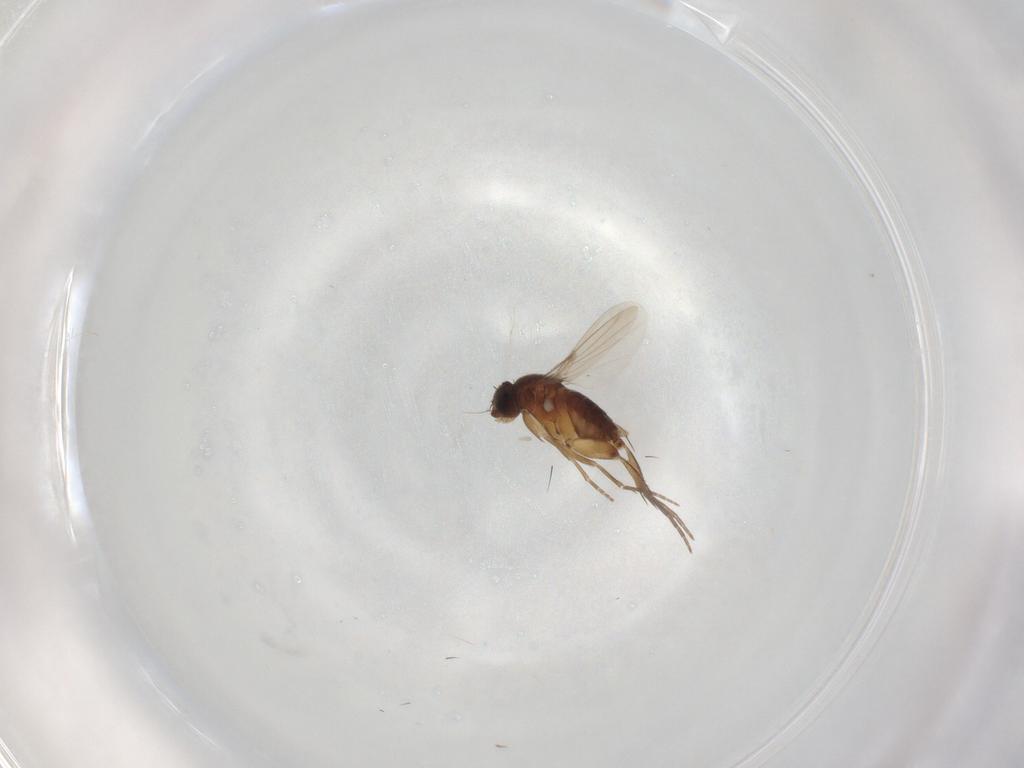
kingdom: Animalia
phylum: Arthropoda
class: Insecta
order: Diptera
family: Phoridae
